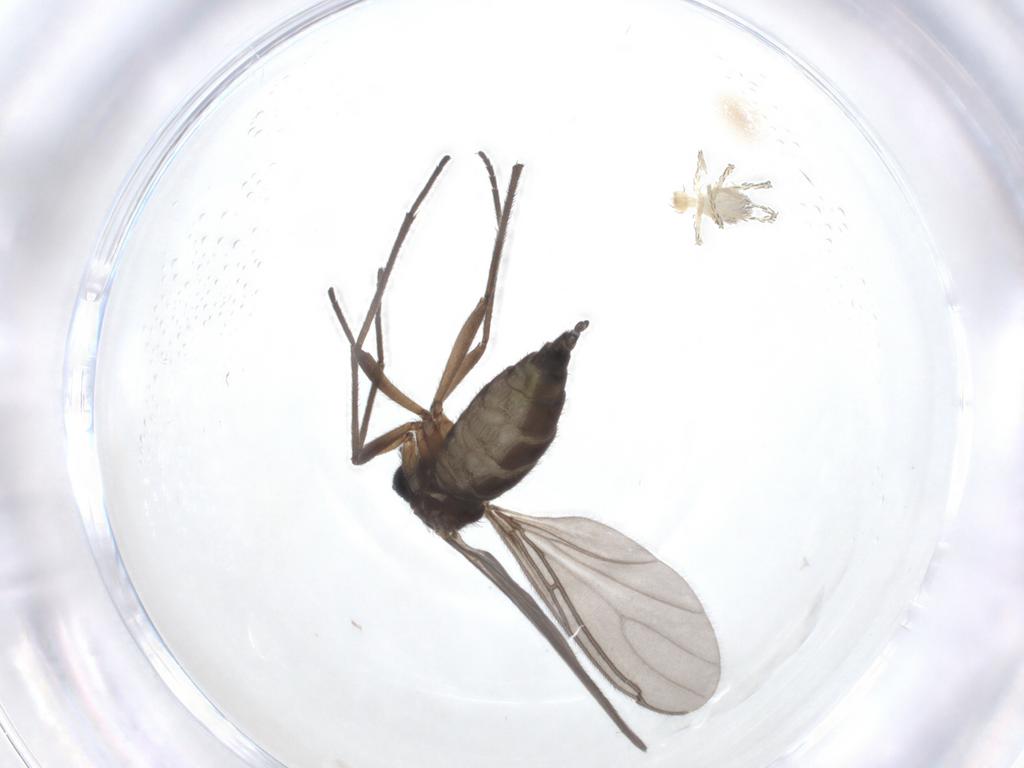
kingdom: Animalia
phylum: Arthropoda
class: Insecta
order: Diptera
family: Sciaridae
